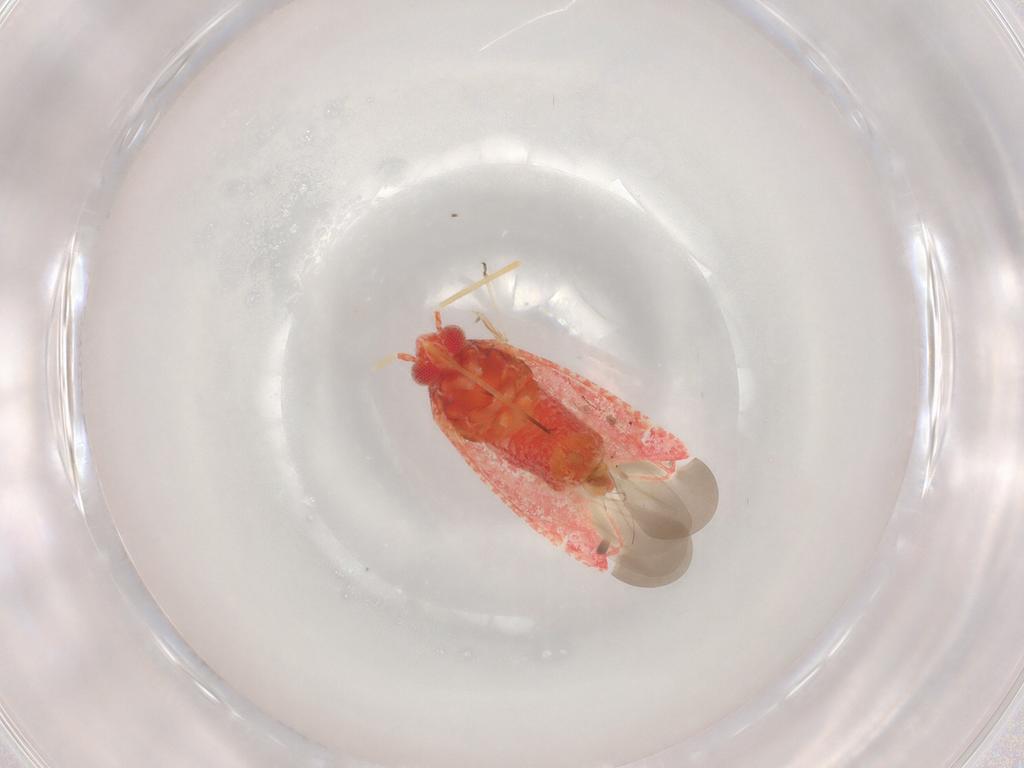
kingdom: Animalia
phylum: Arthropoda
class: Insecta
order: Hemiptera
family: Miridae
